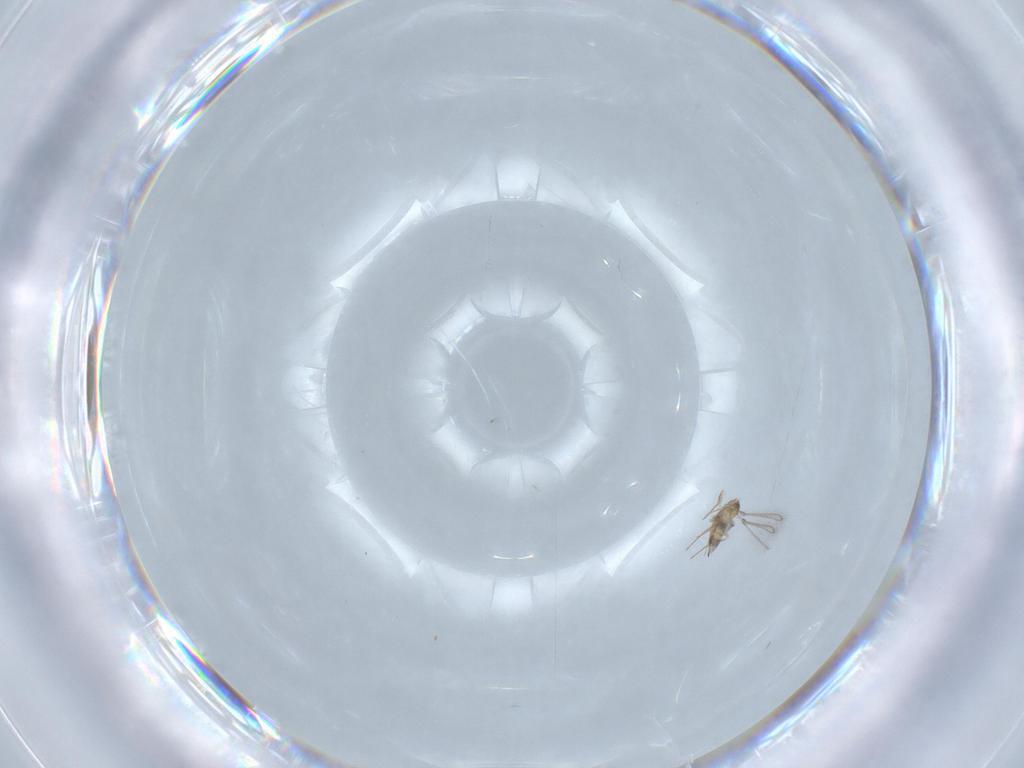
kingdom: Animalia
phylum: Arthropoda
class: Insecta
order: Hymenoptera
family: Mymaridae
